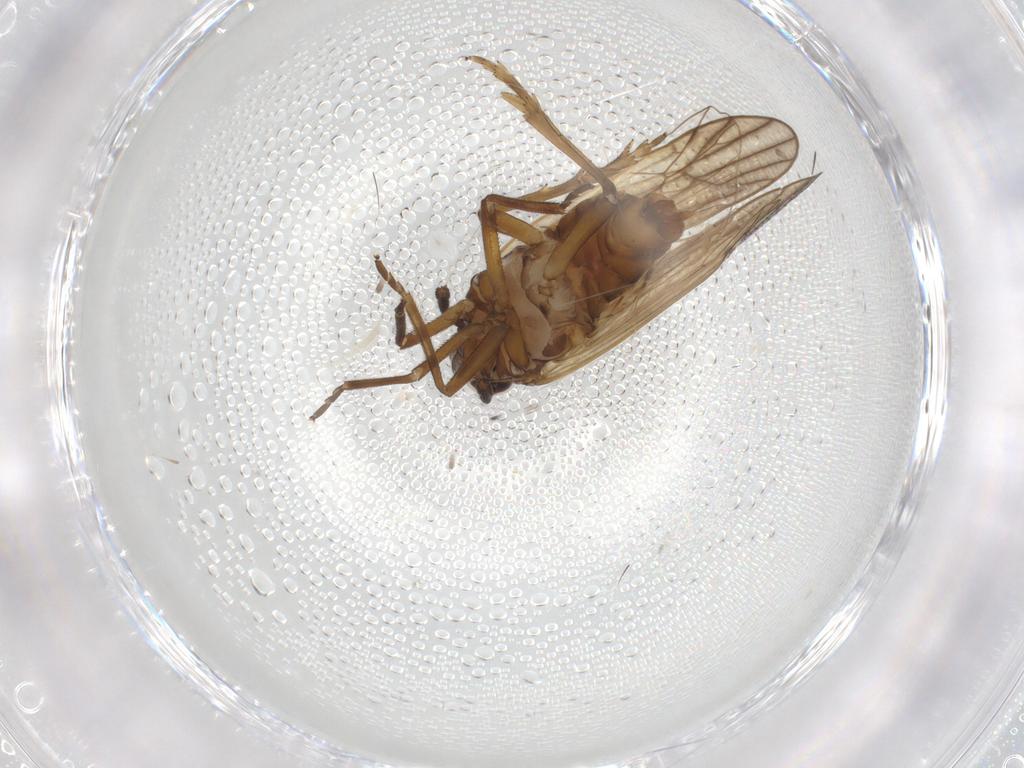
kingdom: Animalia
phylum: Arthropoda
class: Insecta
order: Hemiptera
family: Delphacidae
